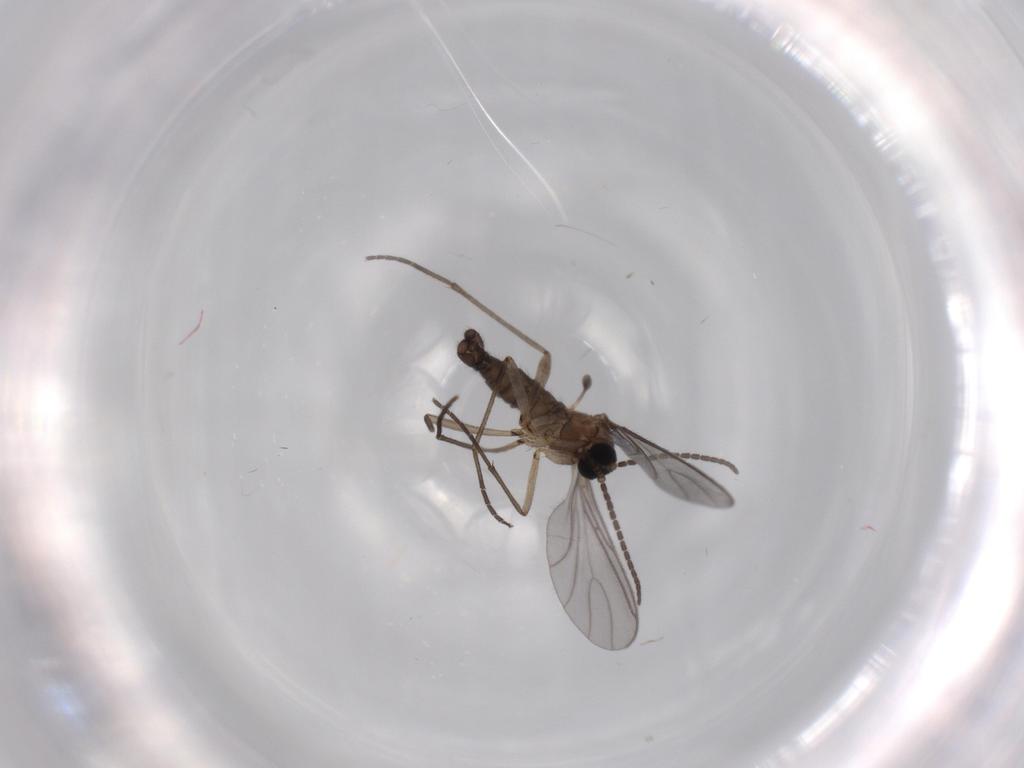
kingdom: Animalia
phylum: Arthropoda
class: Insecta
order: Diptera
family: Sciaridae
